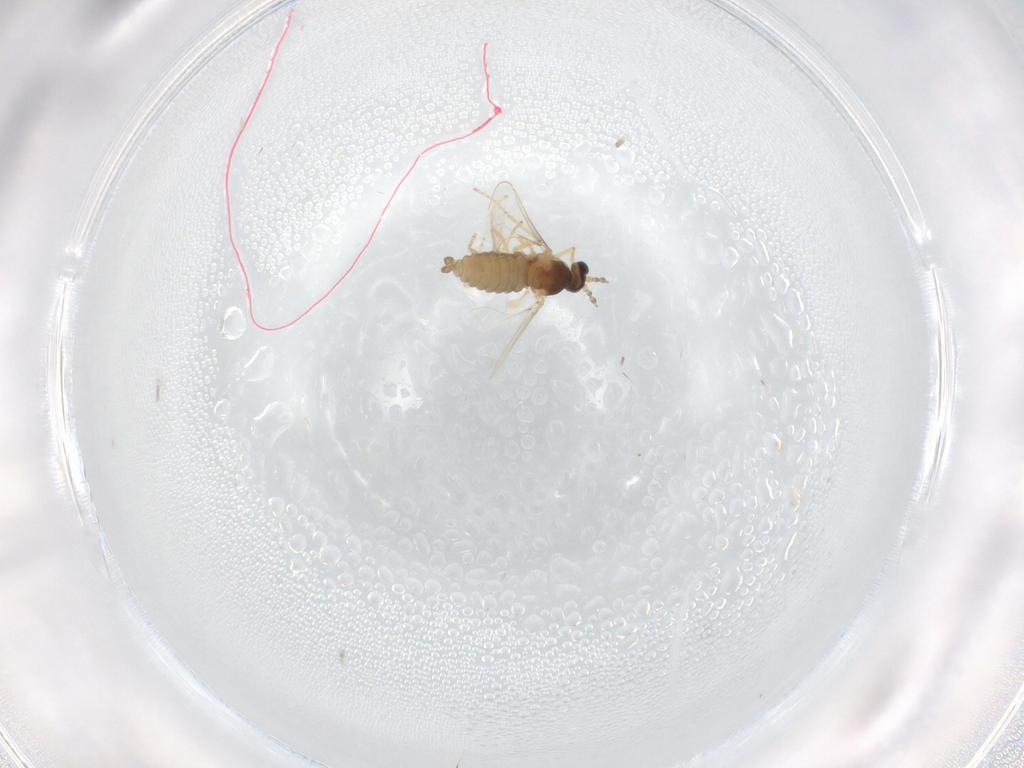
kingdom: Animalia
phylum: Arthropoda
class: Insecta
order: Diptera
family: Cecidomyiidae
